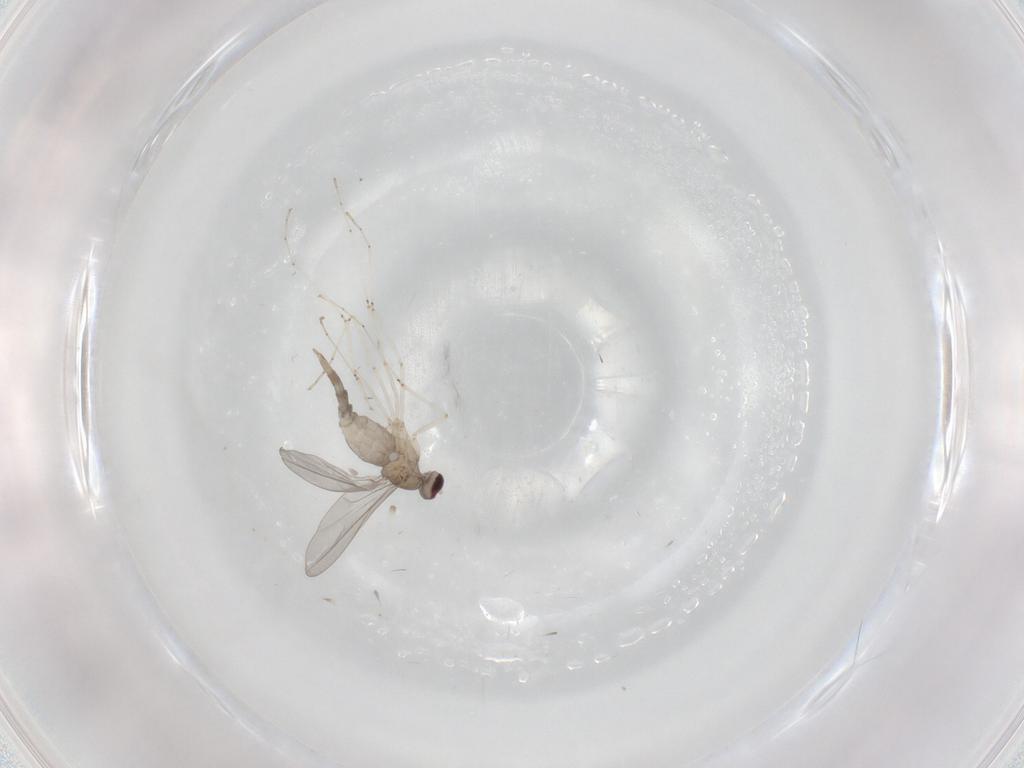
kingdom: Animalia
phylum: Arthropoda
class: Insecta
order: Diptera
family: Cecidomyiidae
